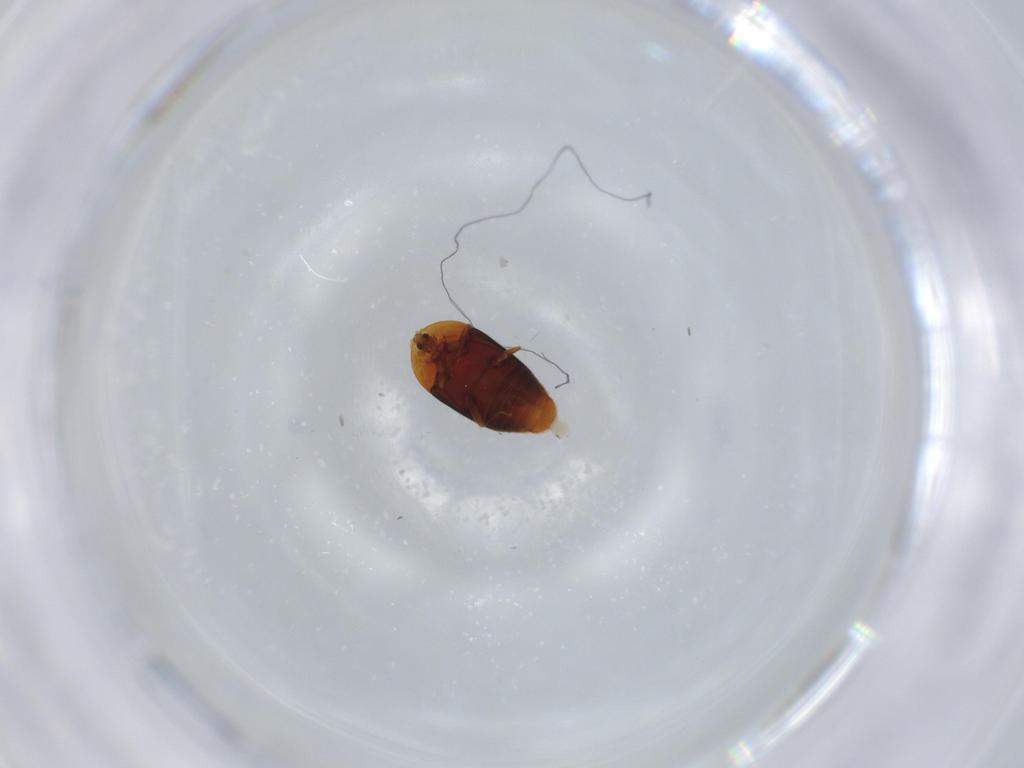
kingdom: Animalia
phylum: Arthropoda
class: Insecta
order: Coleoptera
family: Corylophidae
